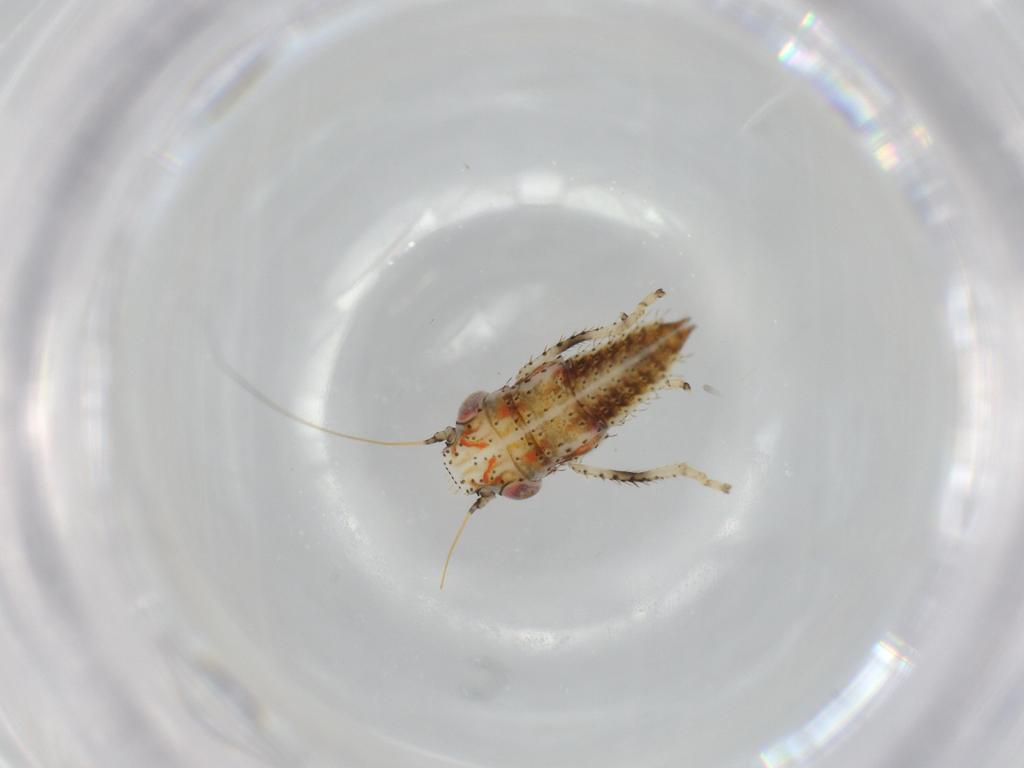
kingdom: Animalia
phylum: Arthropoda
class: Insecta
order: Hemiptera
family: Cicadellidae
